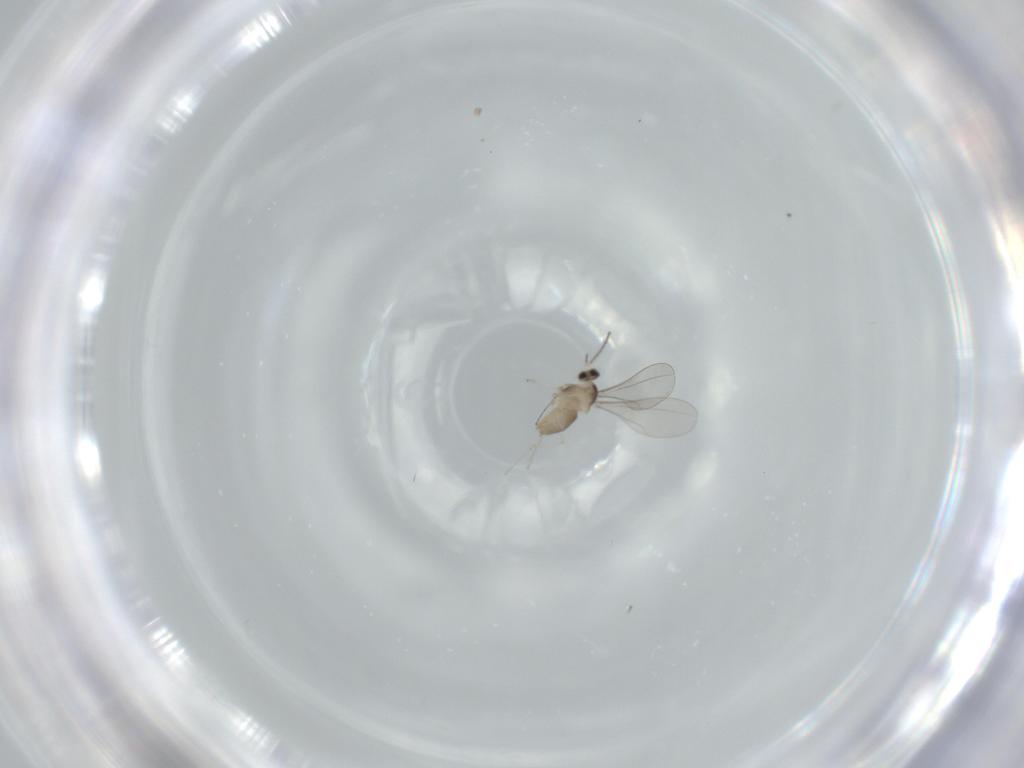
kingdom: Animalia
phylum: Arthropoda
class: Insecta
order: Diptera
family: Cecidomyiidae
